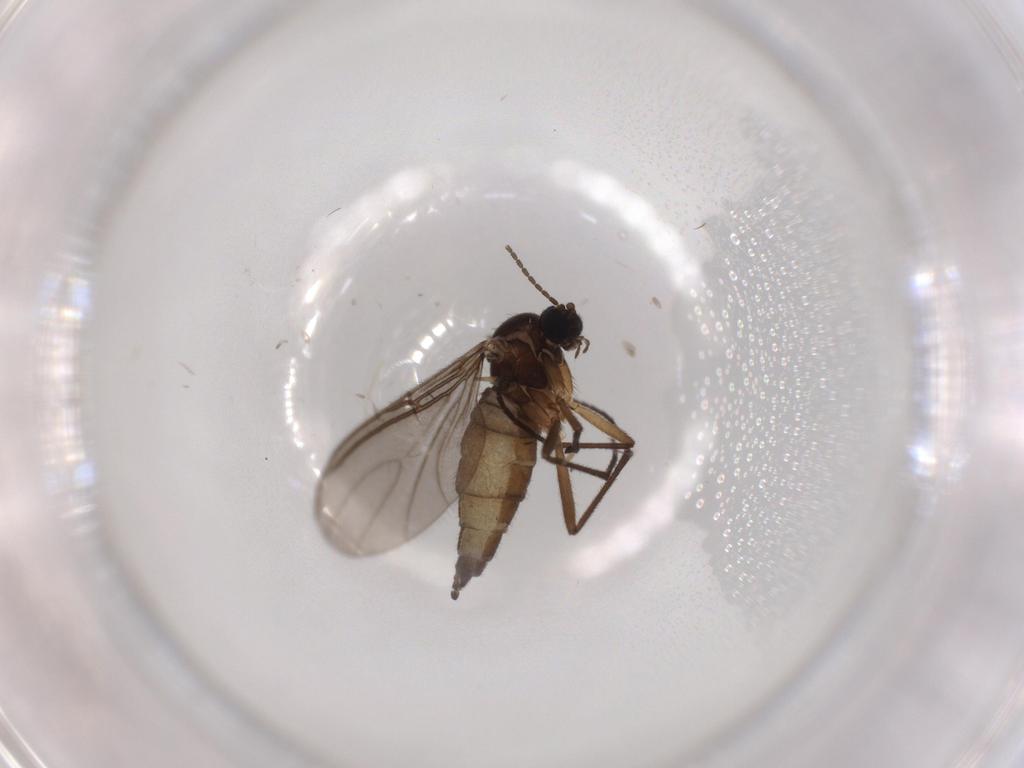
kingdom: Animalia
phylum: Arthropoda
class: Insecta
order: Diptera
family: Sciaridae
